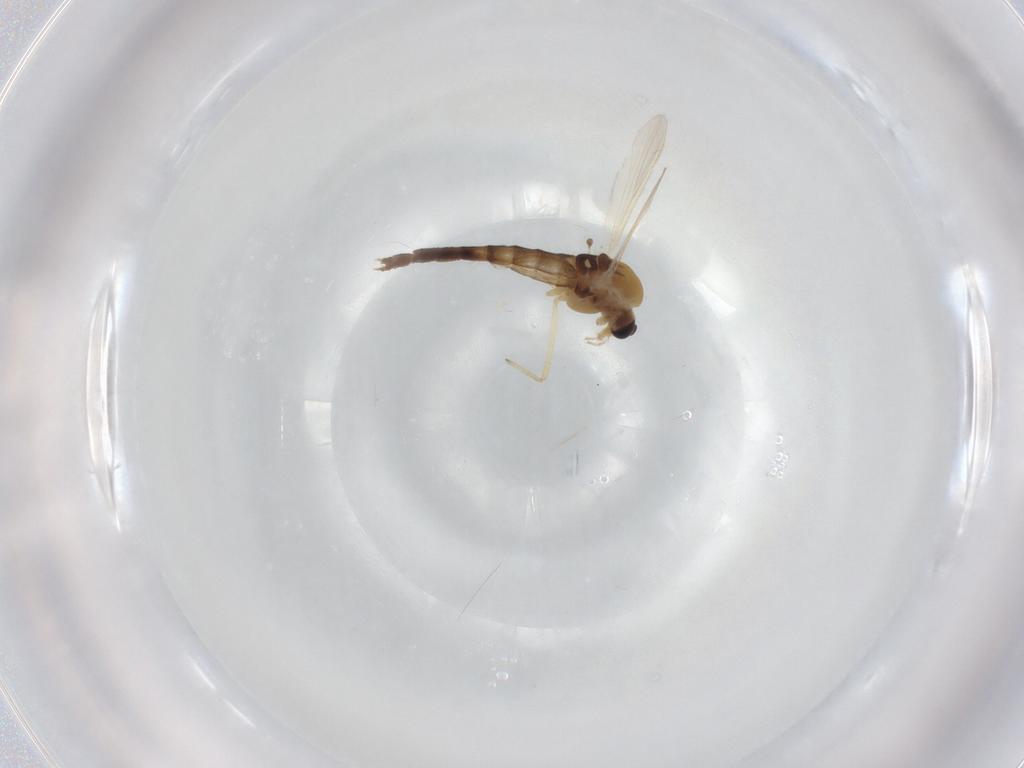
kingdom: Animalia
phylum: Arthropoda
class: Insecta
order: Diptera
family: Chironomidae
